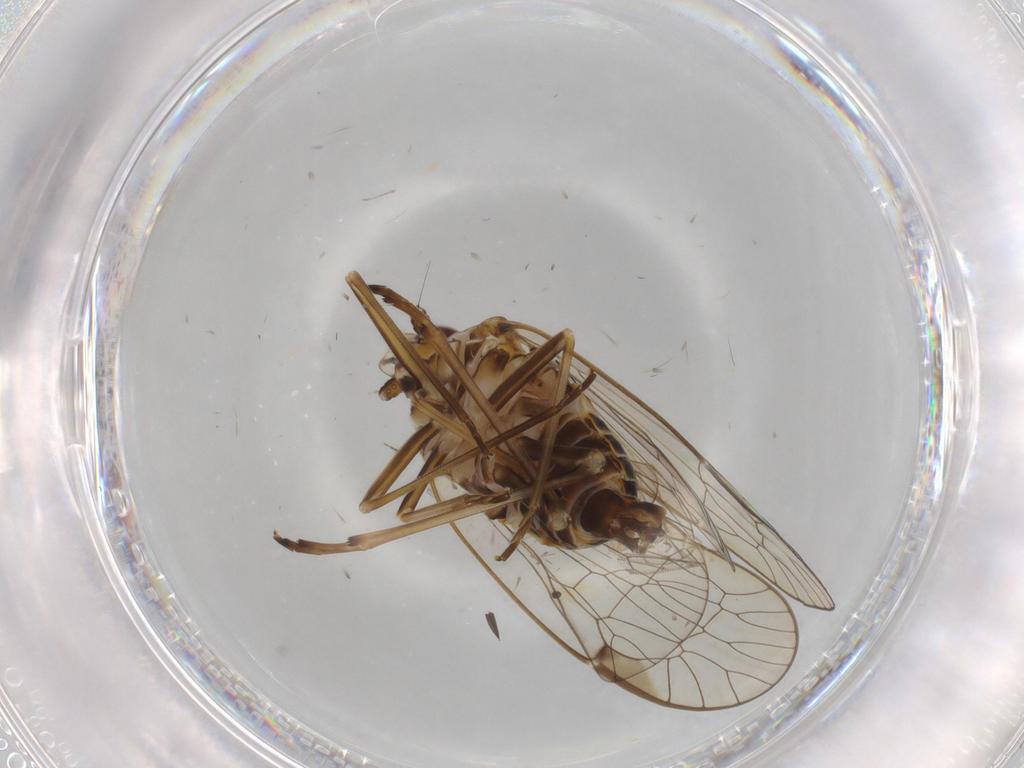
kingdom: Animalia
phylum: Arthropoda
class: Insecta
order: Hemiptera
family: Kinnaridae
